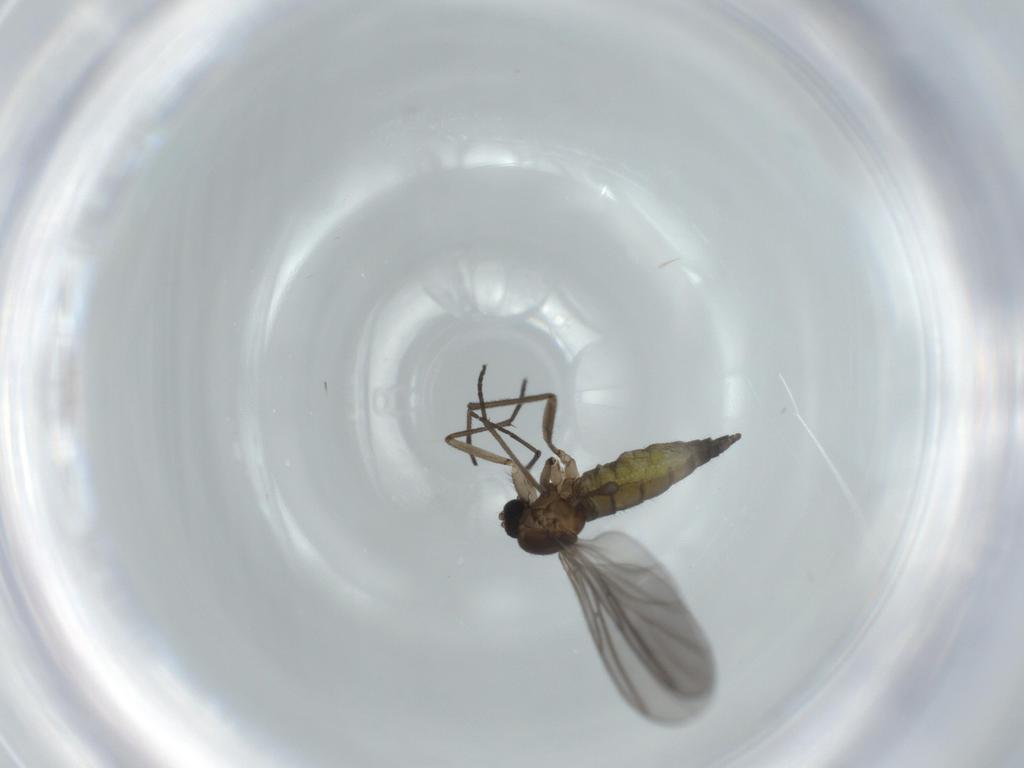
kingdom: Animalia
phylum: Arthropoda
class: Insecta
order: Diptera
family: Sciaridae
